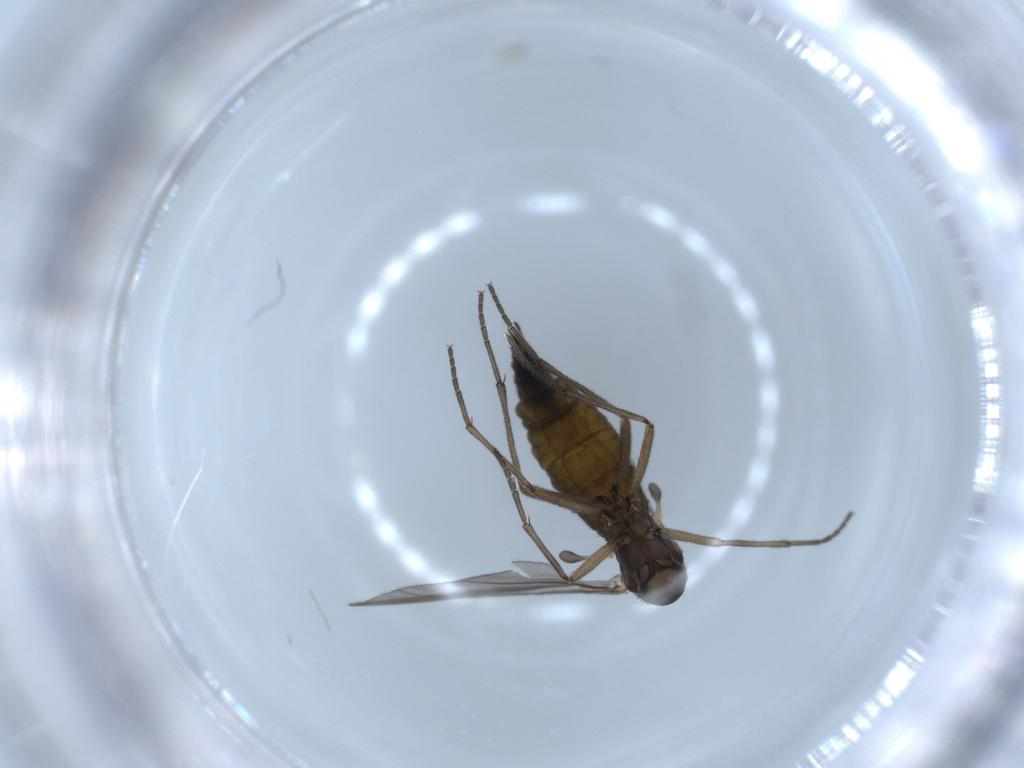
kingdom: Animalia
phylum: Arthropoda
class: Insecta
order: Diptera
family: Sciaridae
